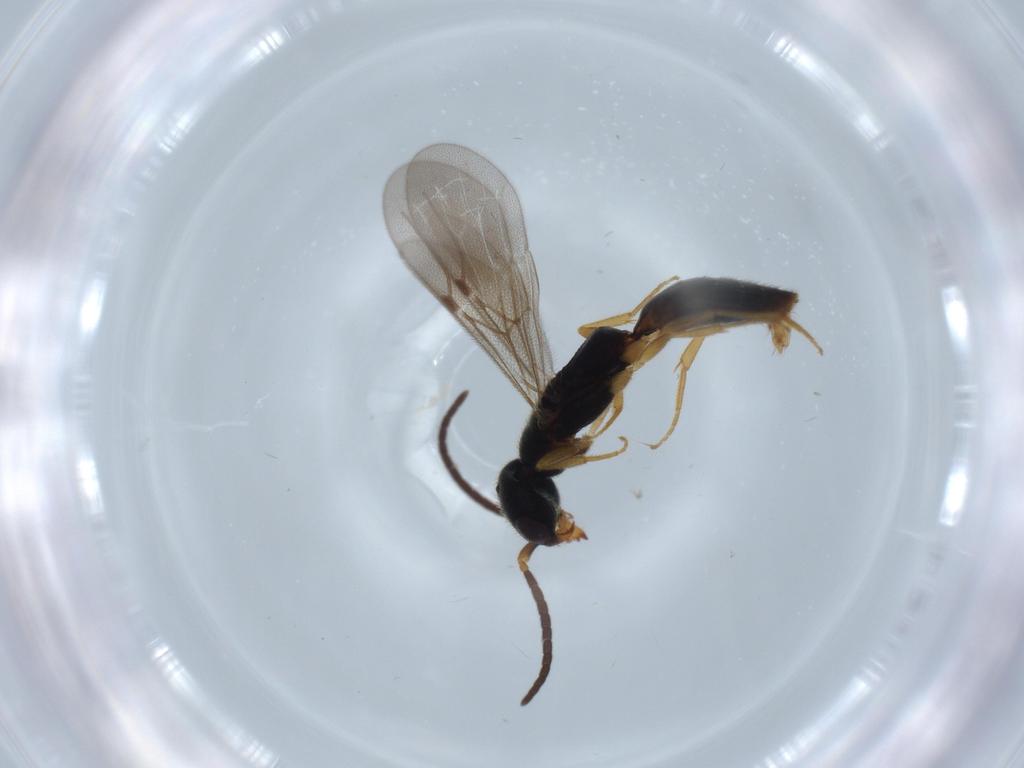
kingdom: Animalia
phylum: Arthropoda
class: Insecta
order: Hymenoptera
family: Bethylidae
